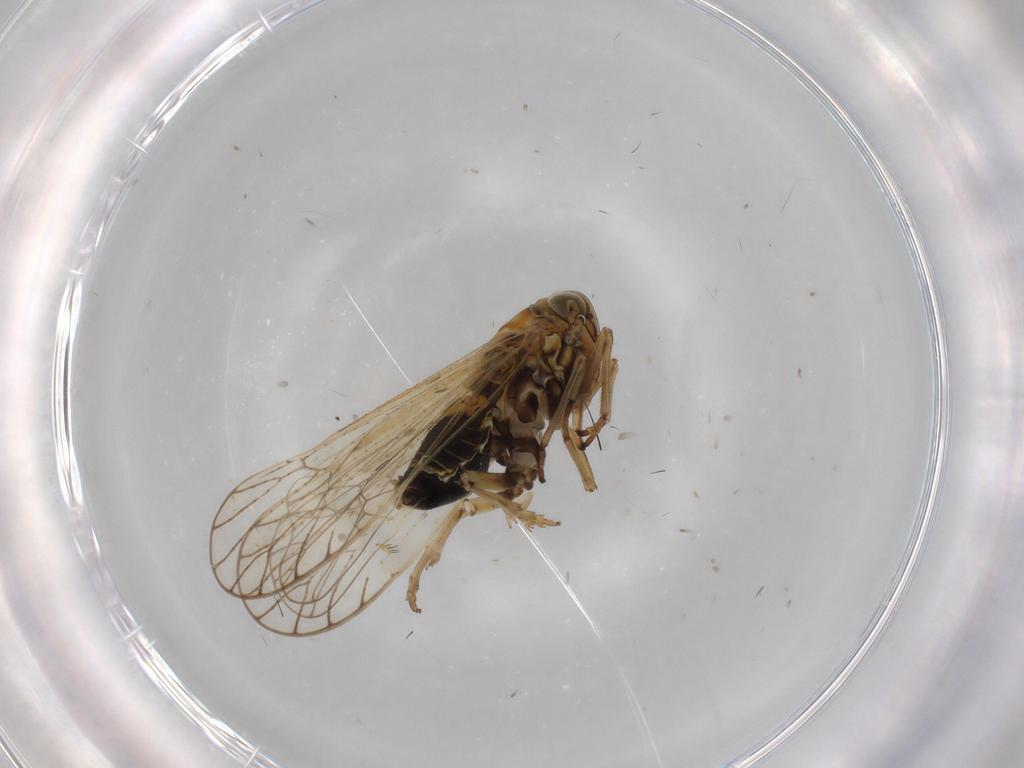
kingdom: Animalia
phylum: Arthropoda
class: Insecta
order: Hemiptera
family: Delphacidae
